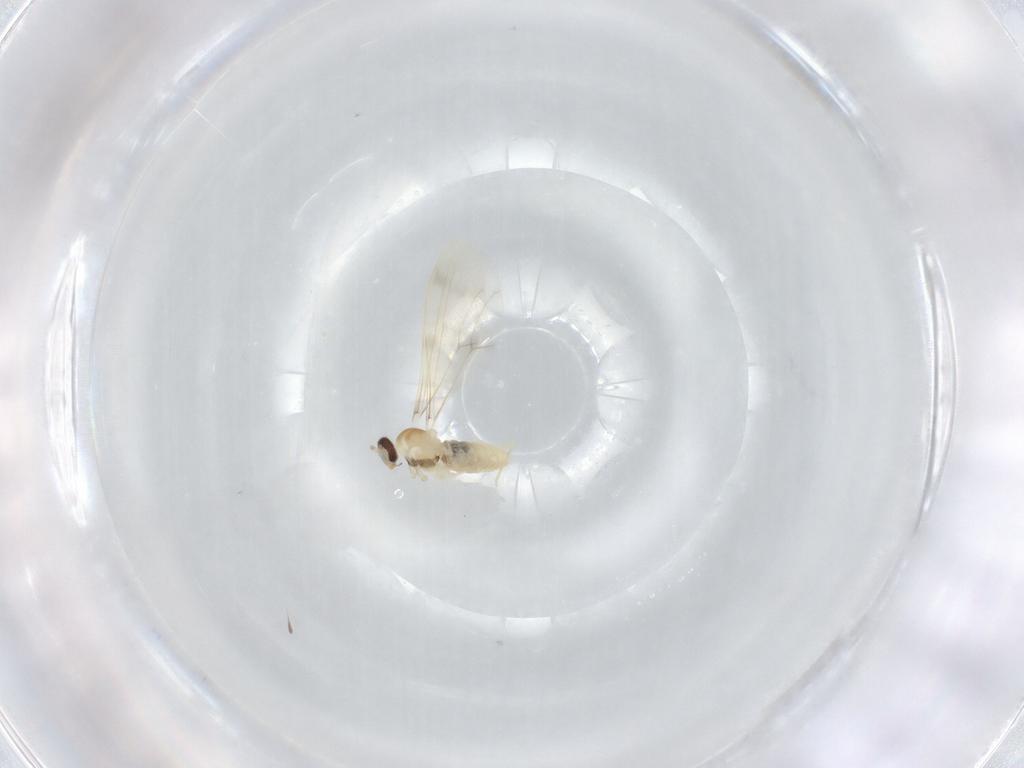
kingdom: Animalia
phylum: Arthropoda
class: Insecta
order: Diptera
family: Cecidomyiidae
